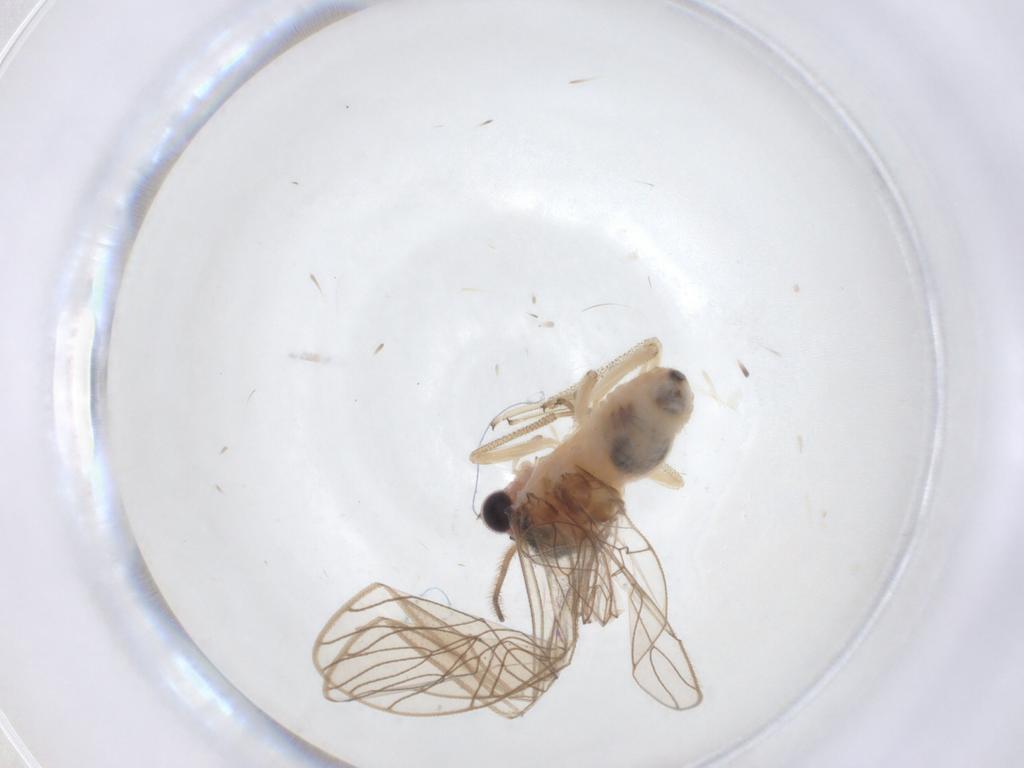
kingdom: Animalia
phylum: Arthropoda
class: Insecta
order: Psocodea
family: Amphipsocidae
